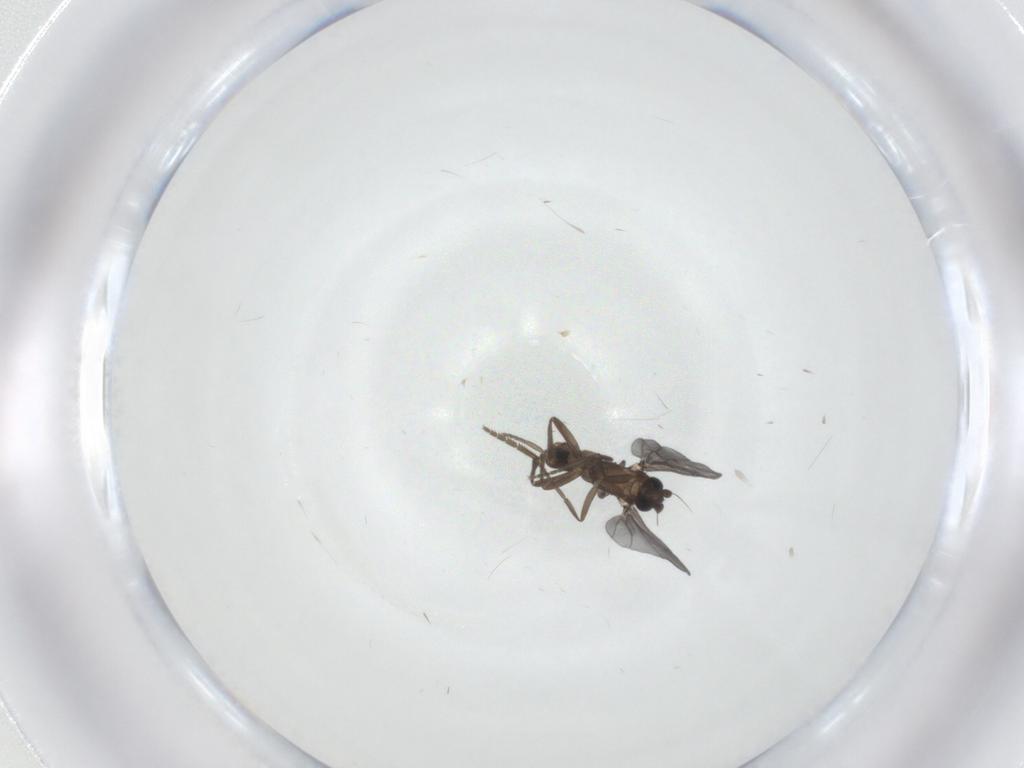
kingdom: Animalia
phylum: Arthropoda
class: Insecta
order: Diptera
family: Phoridae
